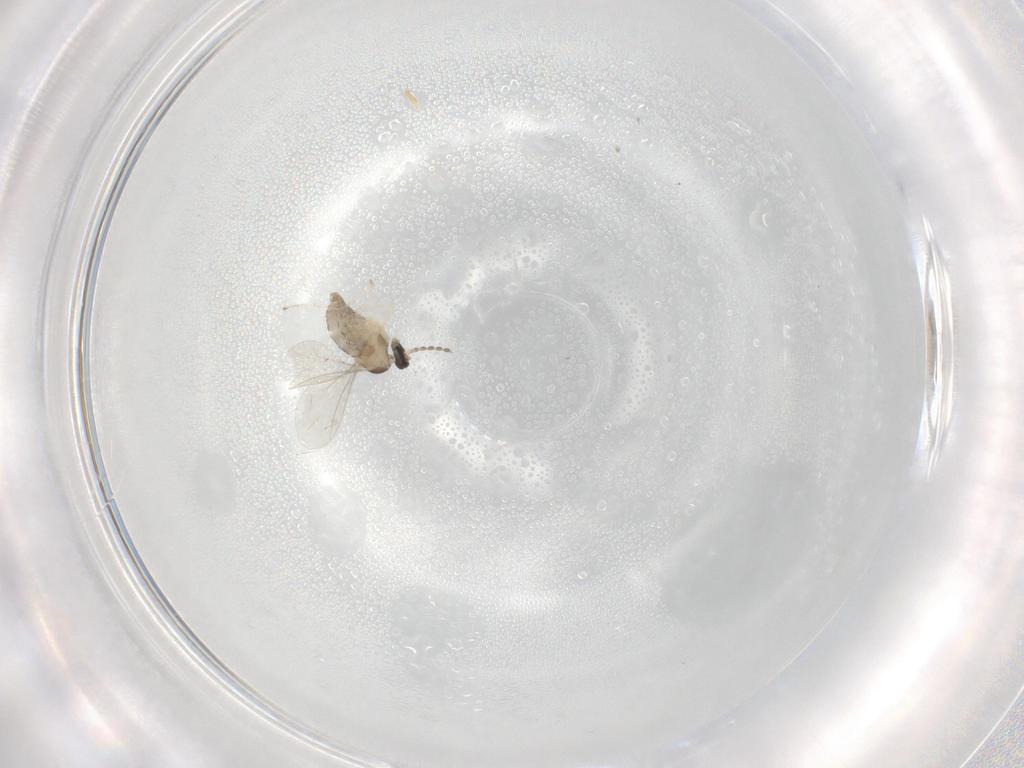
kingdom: Animalia
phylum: Arthropoda
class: Insecta
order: Diptera
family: Cecidomyiidae
